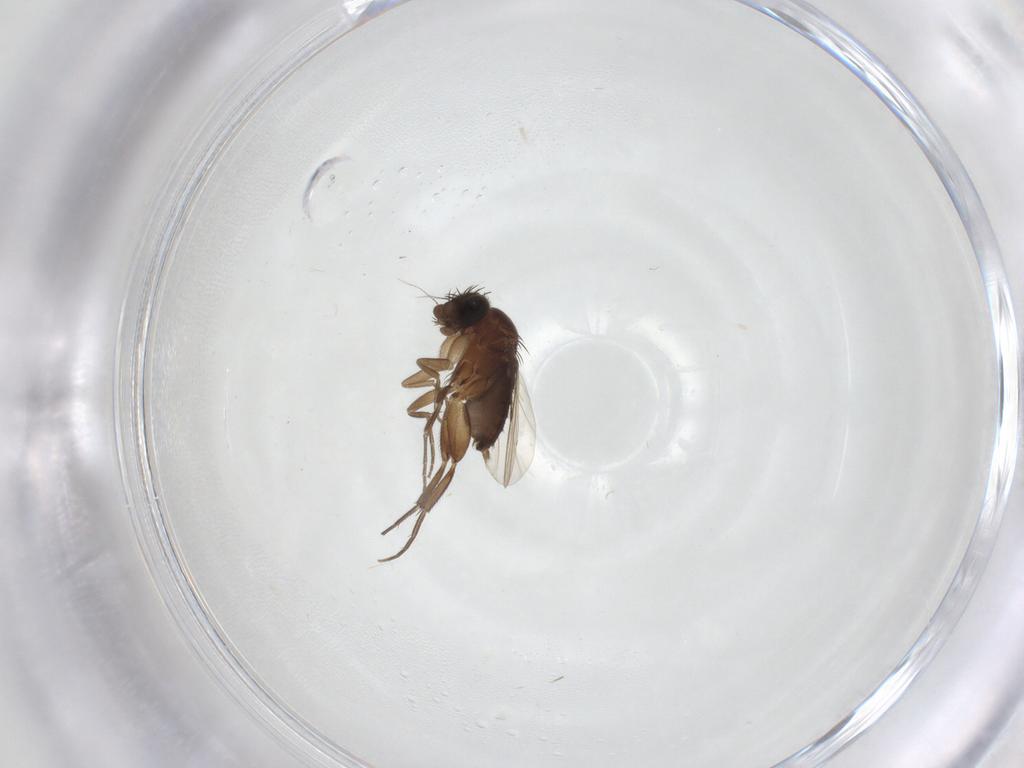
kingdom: Animalia
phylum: Arthropoda
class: Insecta
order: Diptera
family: Phoridae
